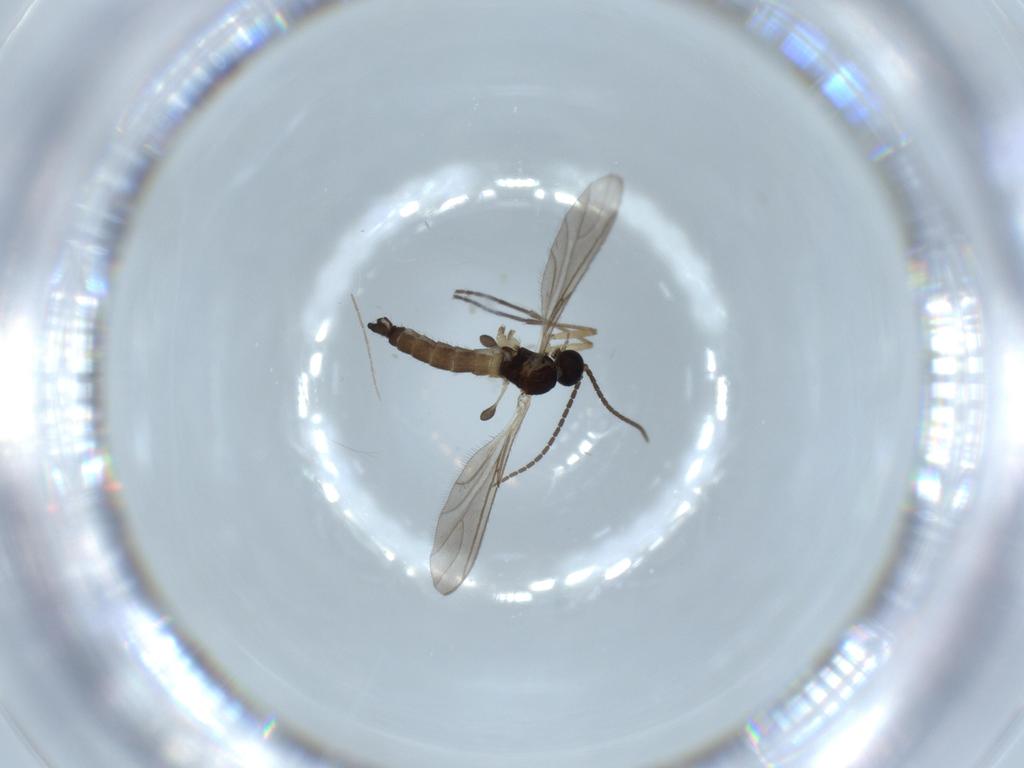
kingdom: Animalia
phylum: Arthropoda
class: Insecta
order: Diptera
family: Sciaridae
